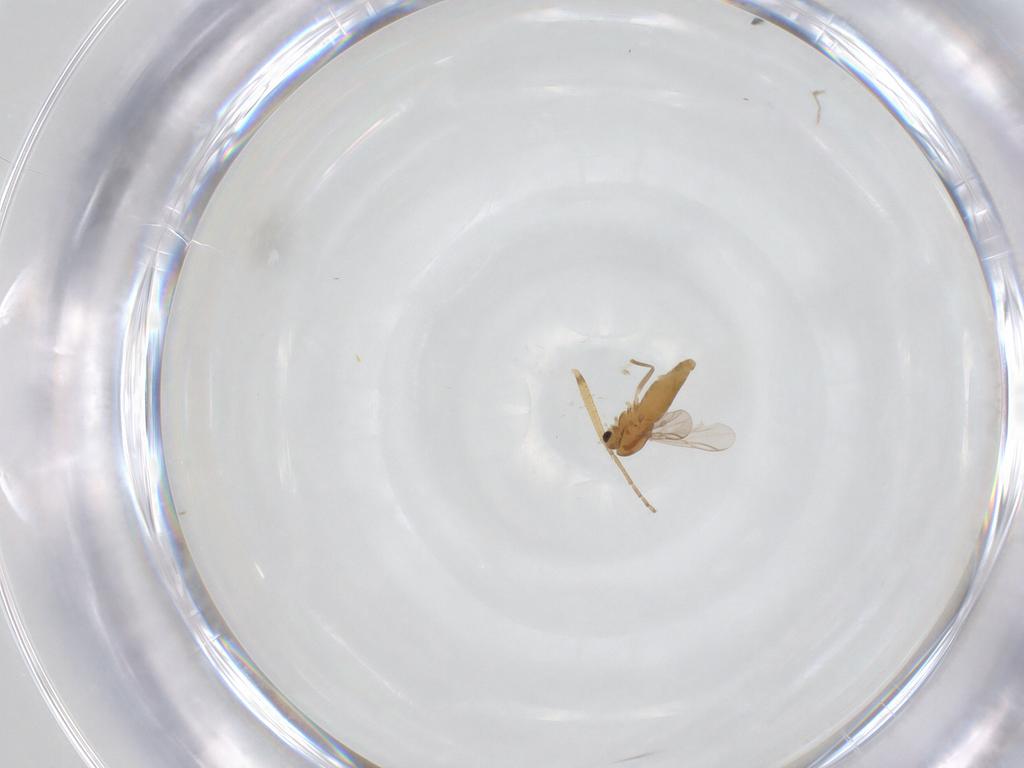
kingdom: Animalia
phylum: Arthropoda
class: Insecta
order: Diptera
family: Chironomidae
